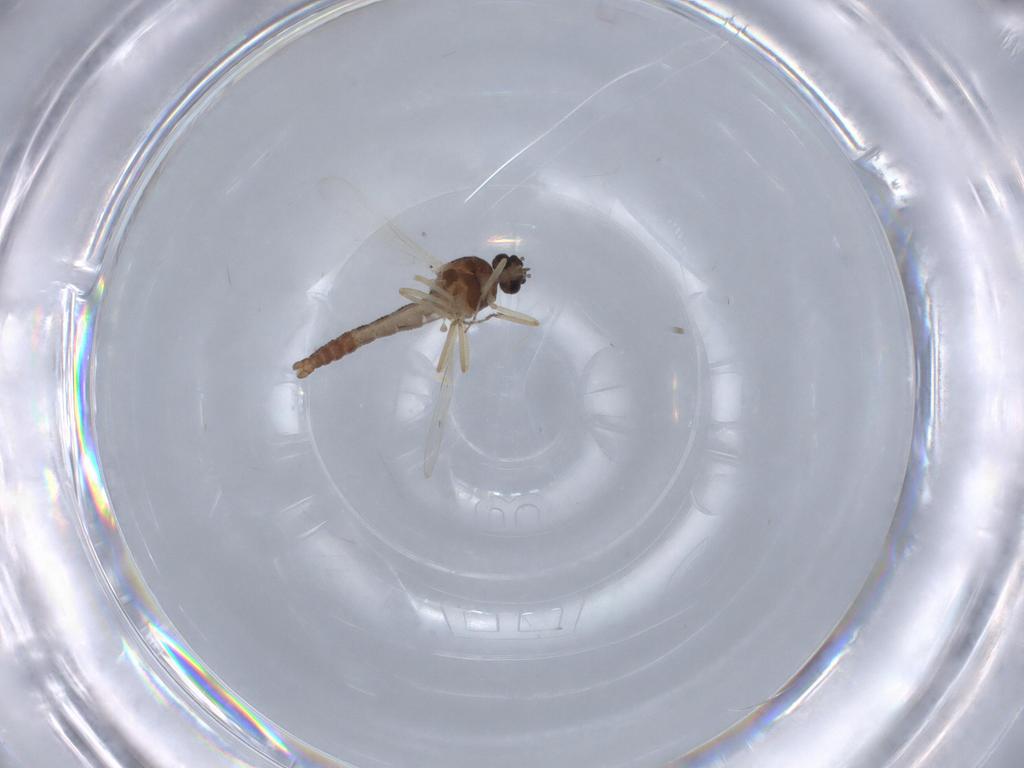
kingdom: Animalia
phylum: Arthropoda
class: Insecta
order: Diptera
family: Ceratopogonidae
